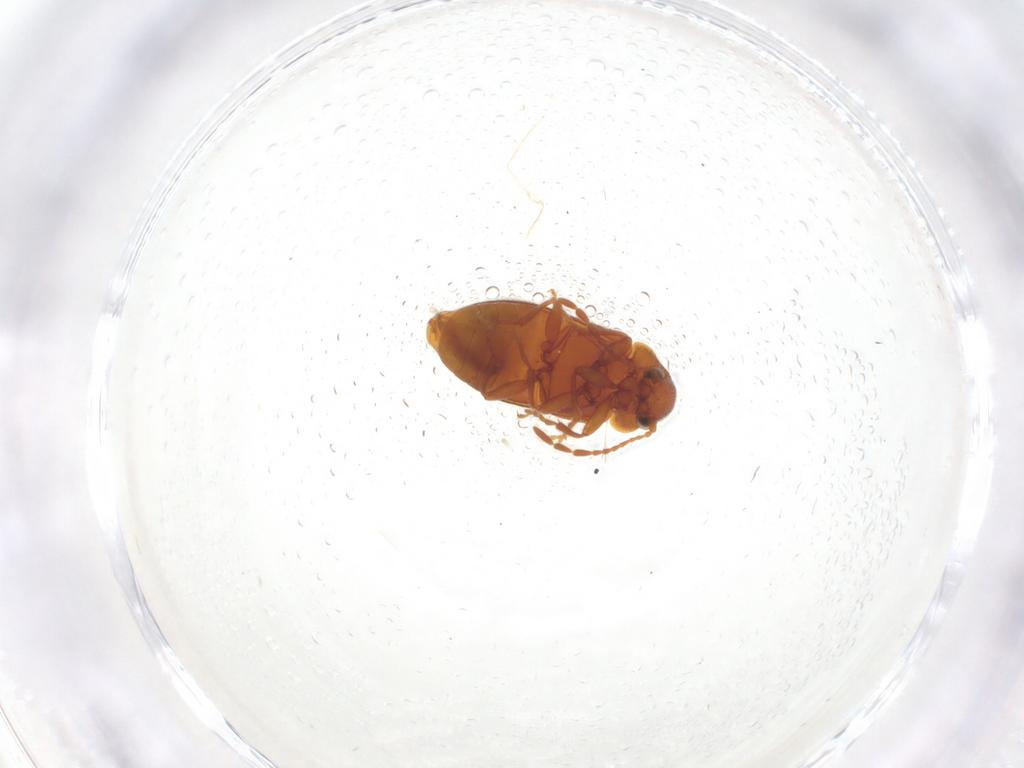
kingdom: Animalia
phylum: Arthropoda
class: Insecta
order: Coleoptera
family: Ptinidae
